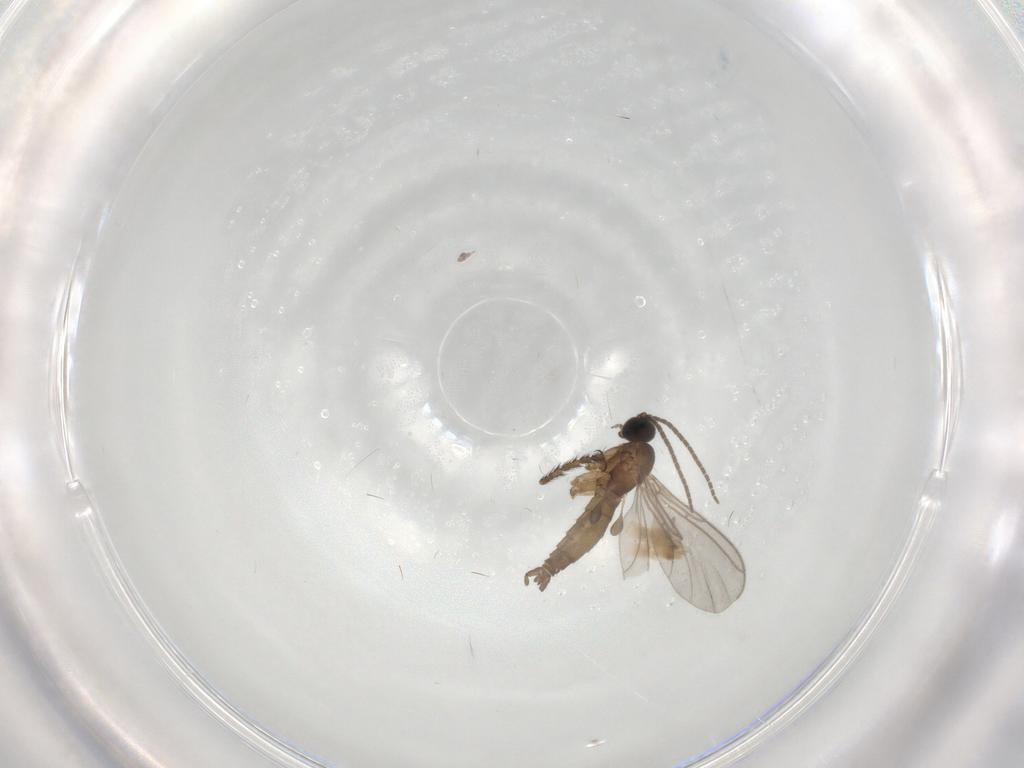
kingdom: Animalia
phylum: Arthropoda
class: Insecta
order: Diptera
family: Sciaridae
